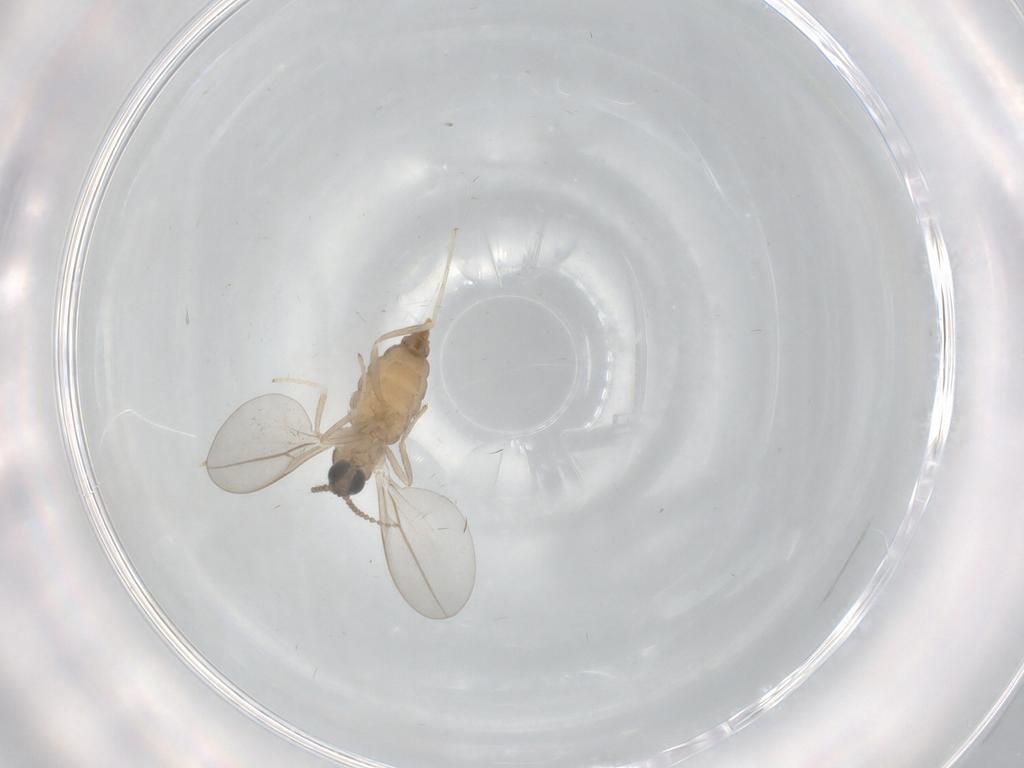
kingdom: Animalia
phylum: Arthropoda
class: Insecta
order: Diptera
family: Cecidomyiidae
